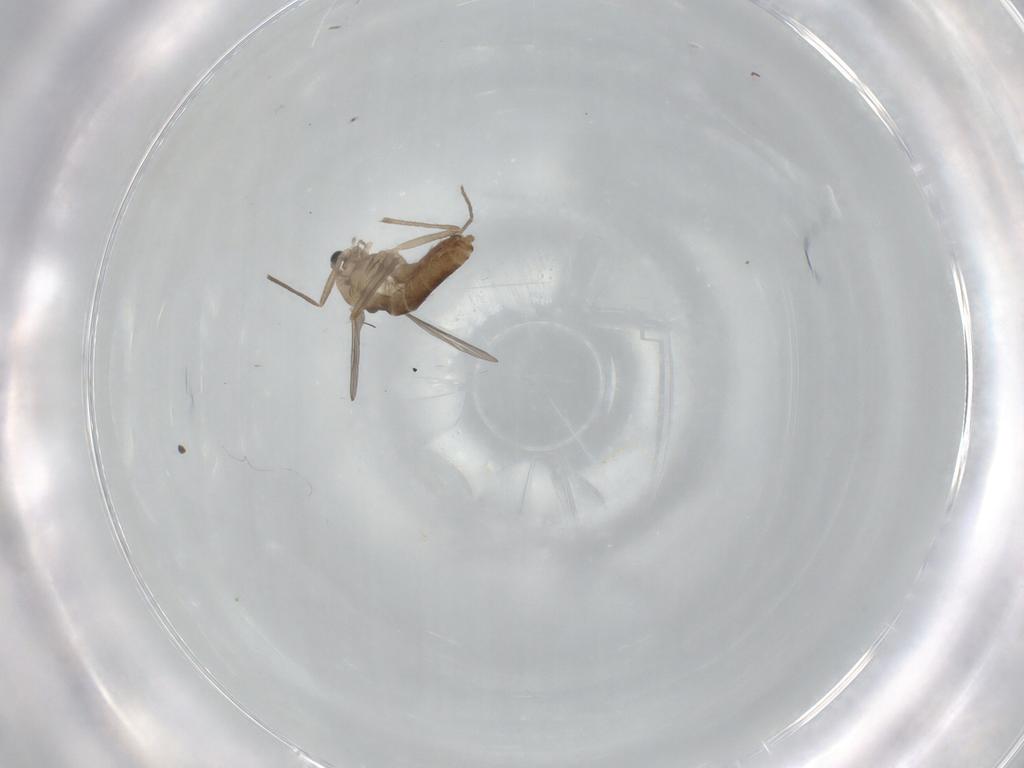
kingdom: Animalia
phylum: Arthropoda
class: Insecta
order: Diptera
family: Chironomidae
